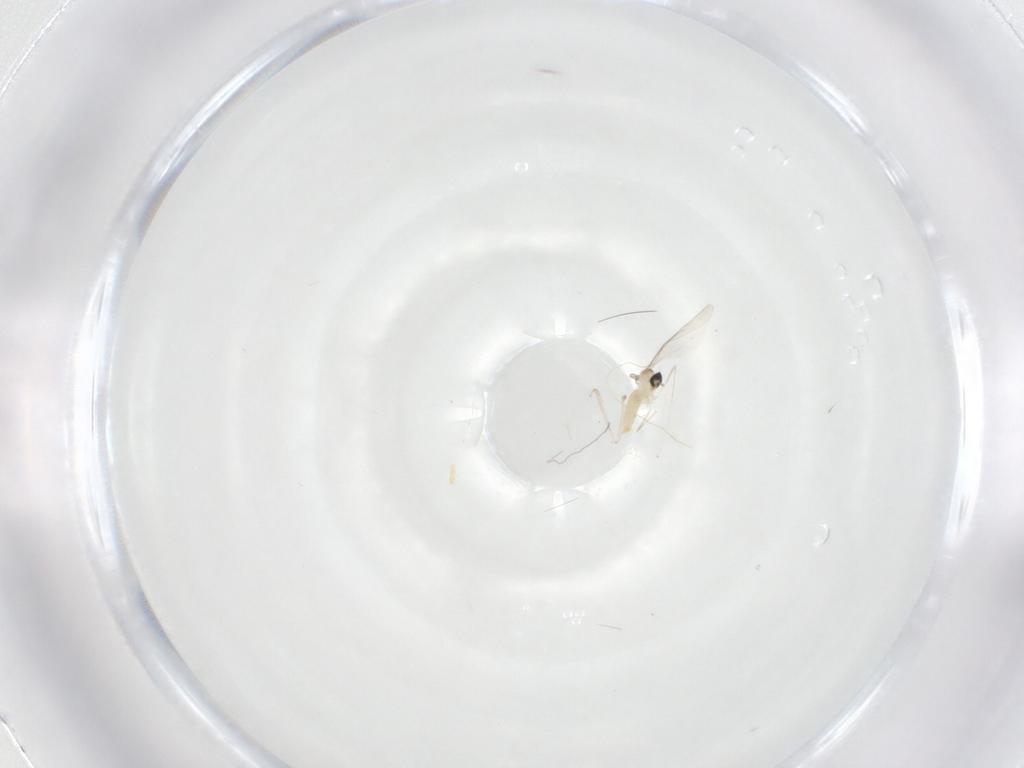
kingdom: Animalia
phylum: Arthropoda
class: Insecta
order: Diptera
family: Cecidomyiidae
